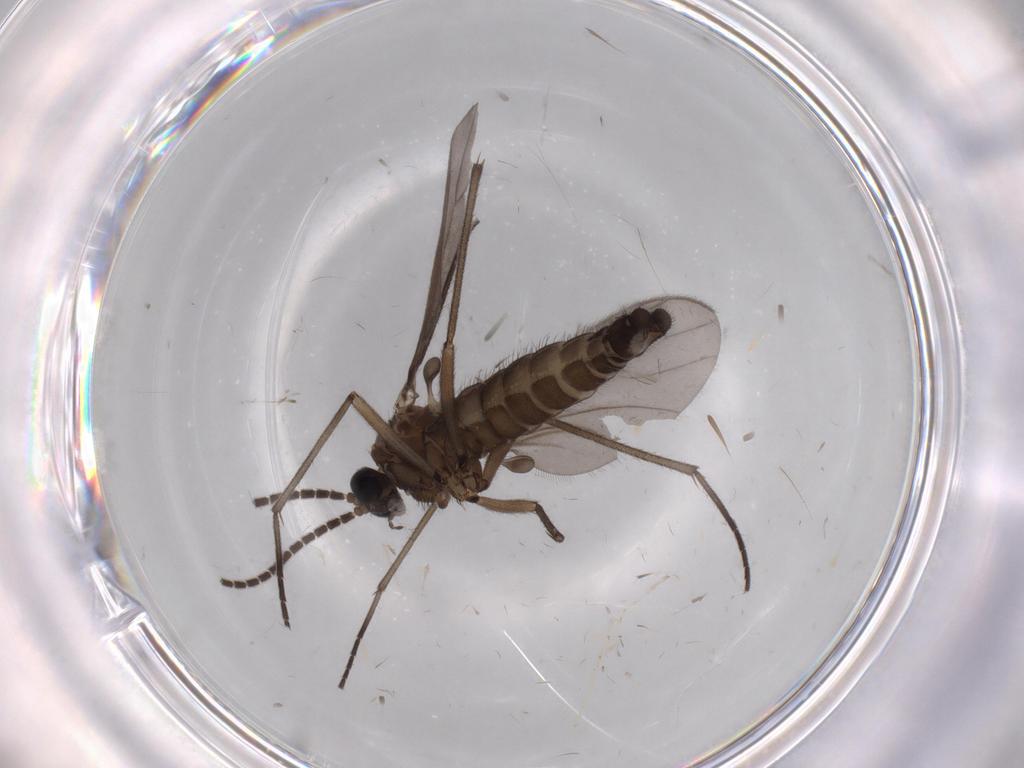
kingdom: Animalia
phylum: Arthropoda
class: Insecta
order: Diptera
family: Sciaridae
